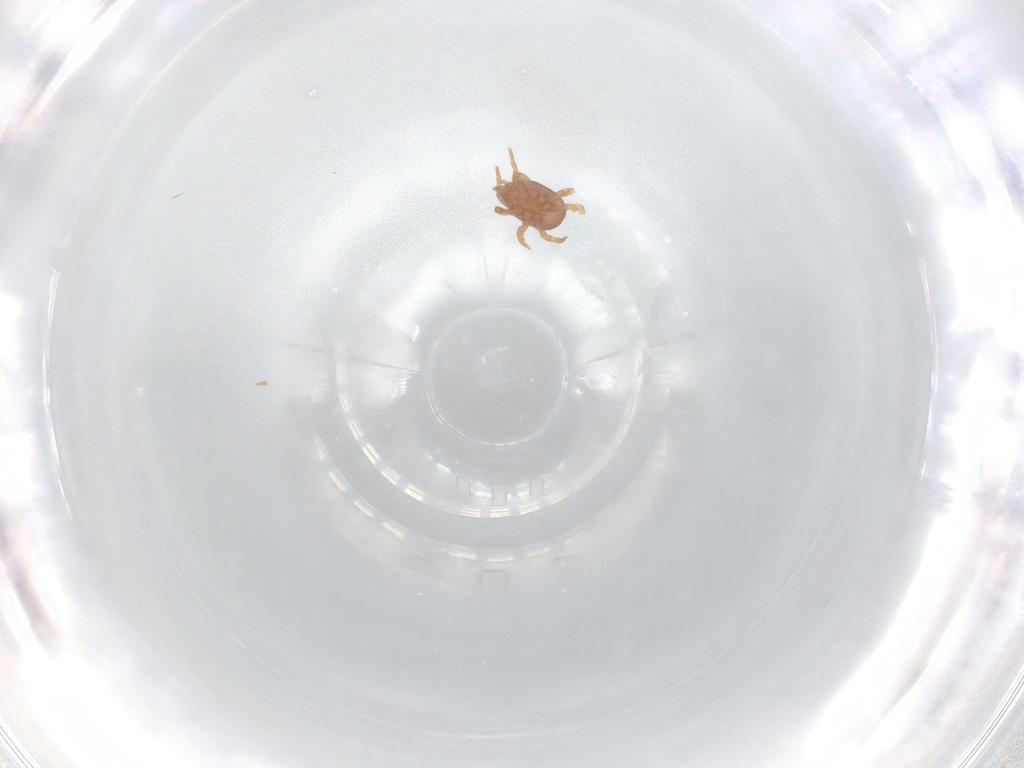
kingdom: Animalia
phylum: Arthropoda
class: Arachnida
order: Mesostigmata
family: Eviphididae
